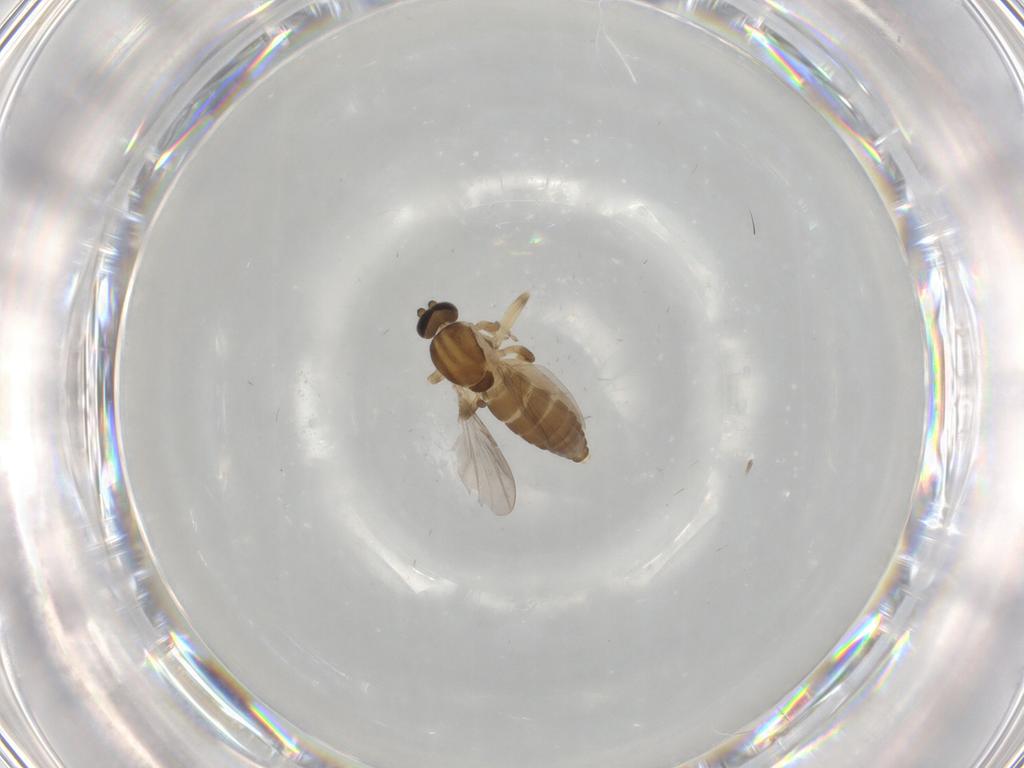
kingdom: Animalia
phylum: Arthropoda
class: Insecta
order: Diptera
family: Ceratopogonidae
